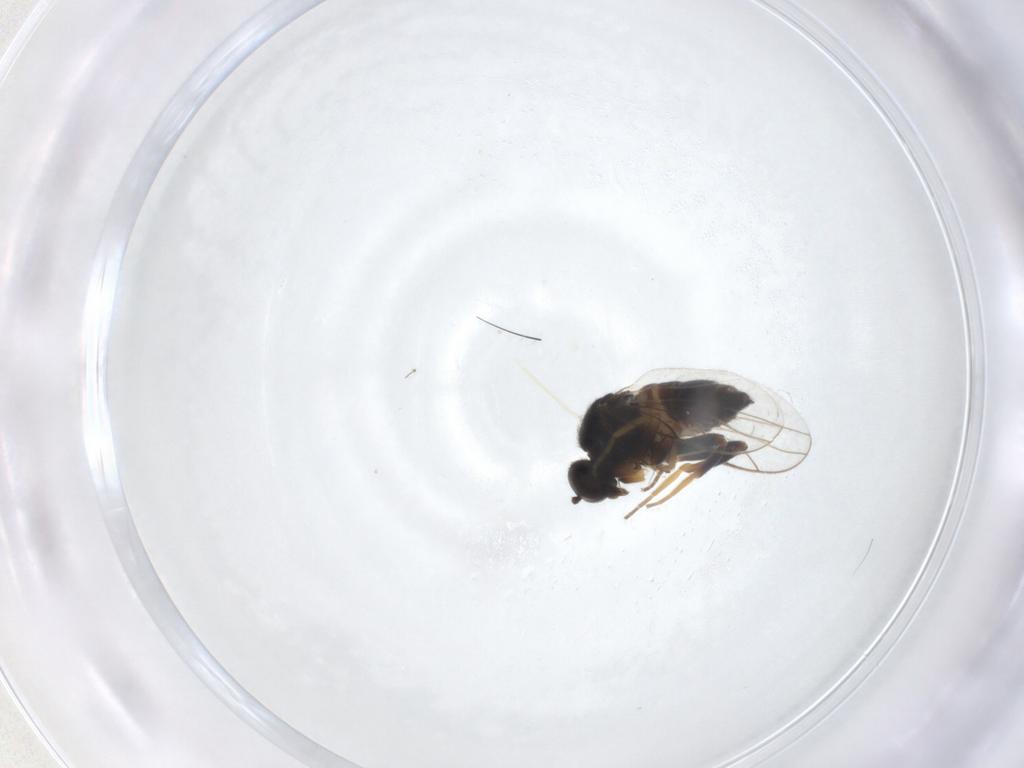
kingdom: Animalia
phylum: Arthropoda
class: Insecta
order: Diptera
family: Hybotidae
